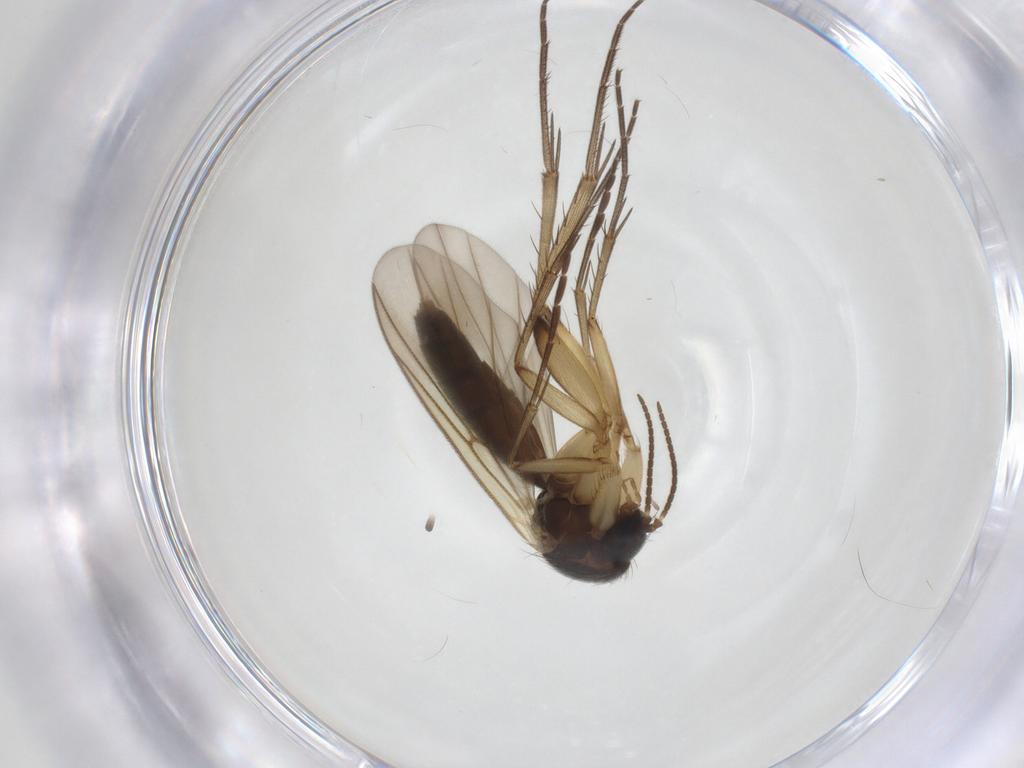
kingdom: Animalia
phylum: Arthropoda
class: Insecta
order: Diptera
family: Mycetophilidae
